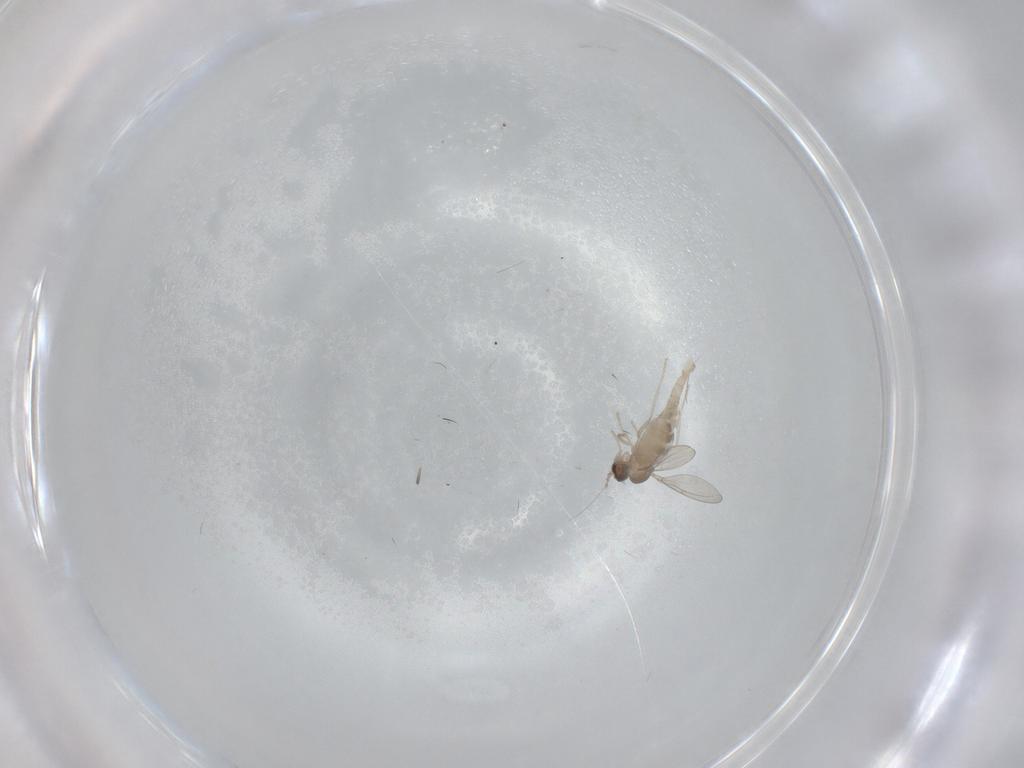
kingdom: Animalia
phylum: Arthropoda
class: Insecta
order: Diptera
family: Cecidomyiidae
